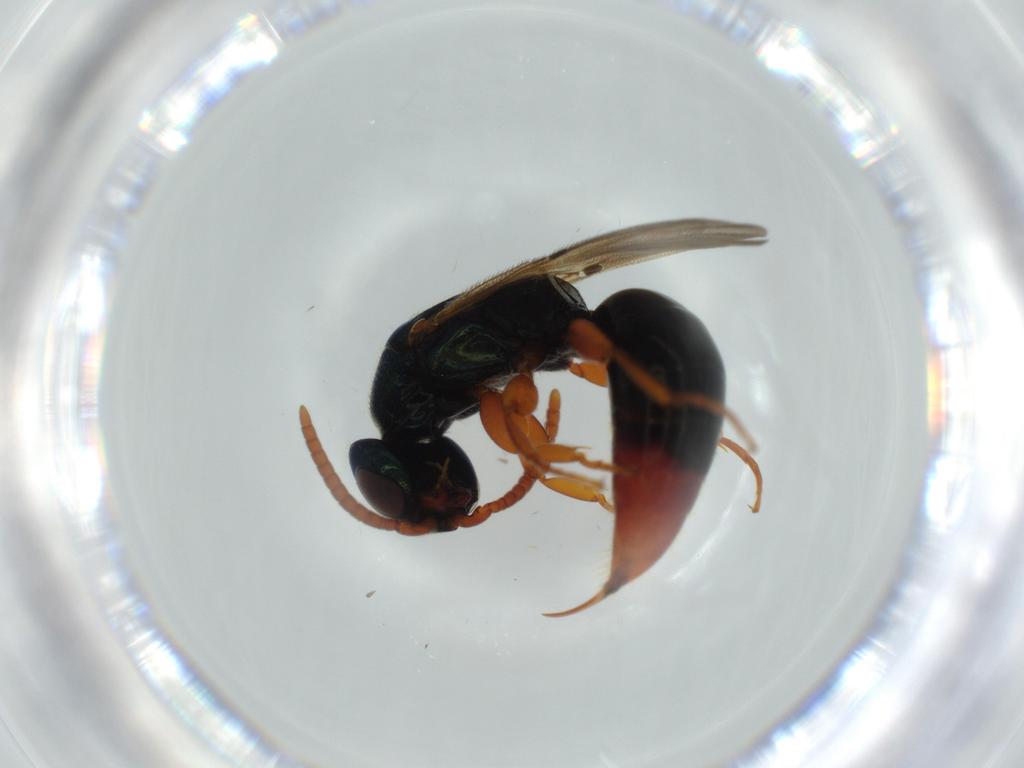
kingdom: Animalia
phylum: Arthropoda
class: Insecta
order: Hymenoptera
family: Bethylidae
